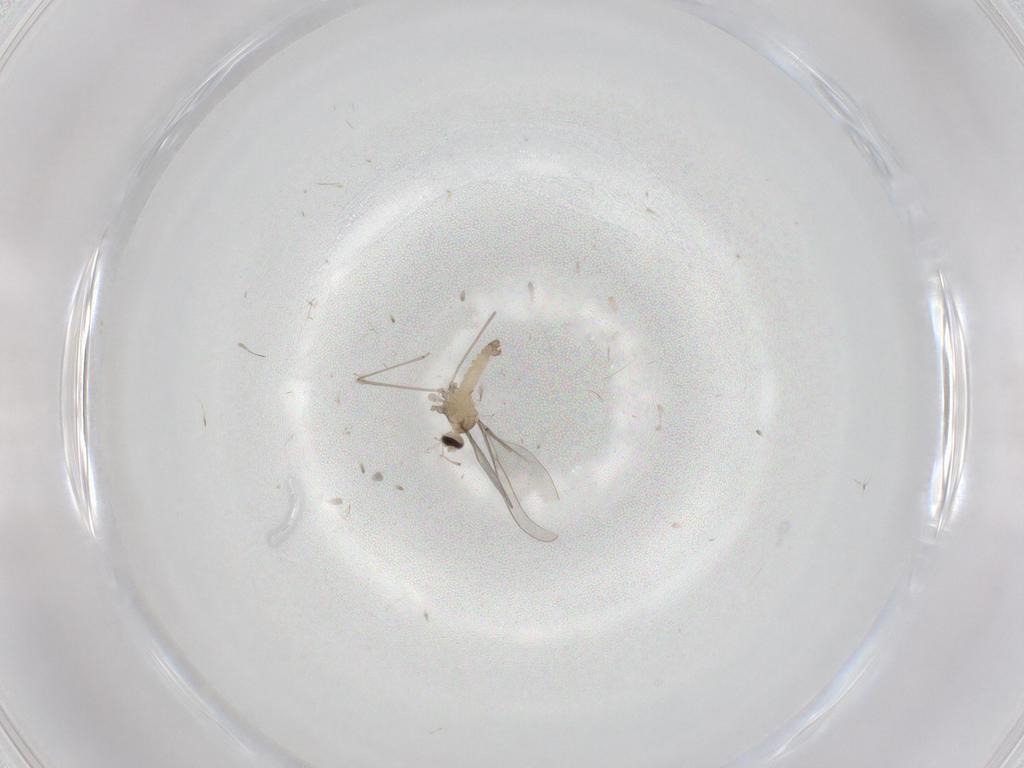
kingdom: Animalia
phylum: Arthropoda
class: Insecta
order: Diptera
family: Cecidomyiidae
